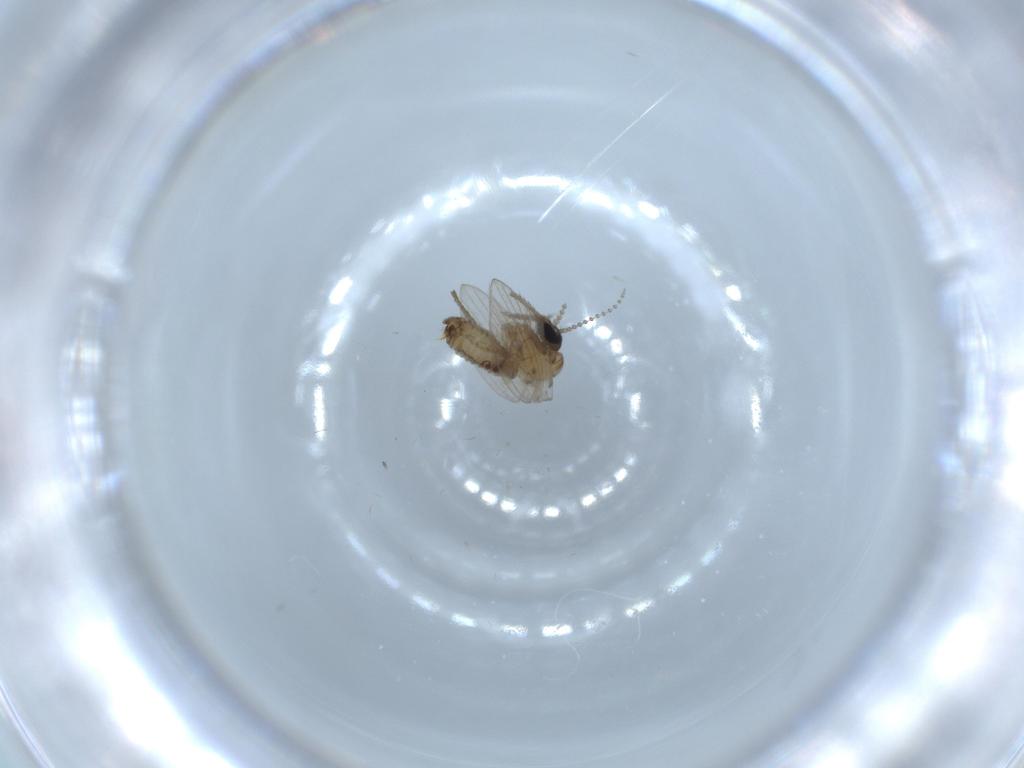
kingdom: Animalia
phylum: Arthropoda
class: Insecta
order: Diptera
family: Psychodidae
